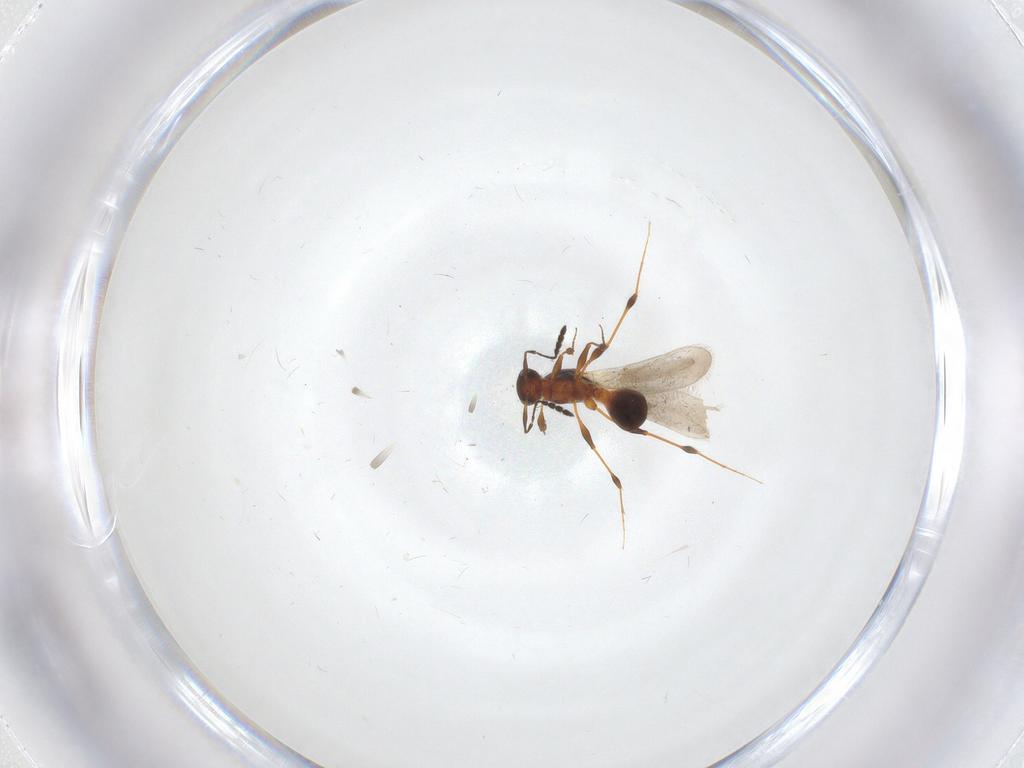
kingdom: Animalia
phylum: Arthropoda
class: Insecta
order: Hymenoptera
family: Platygastridae
